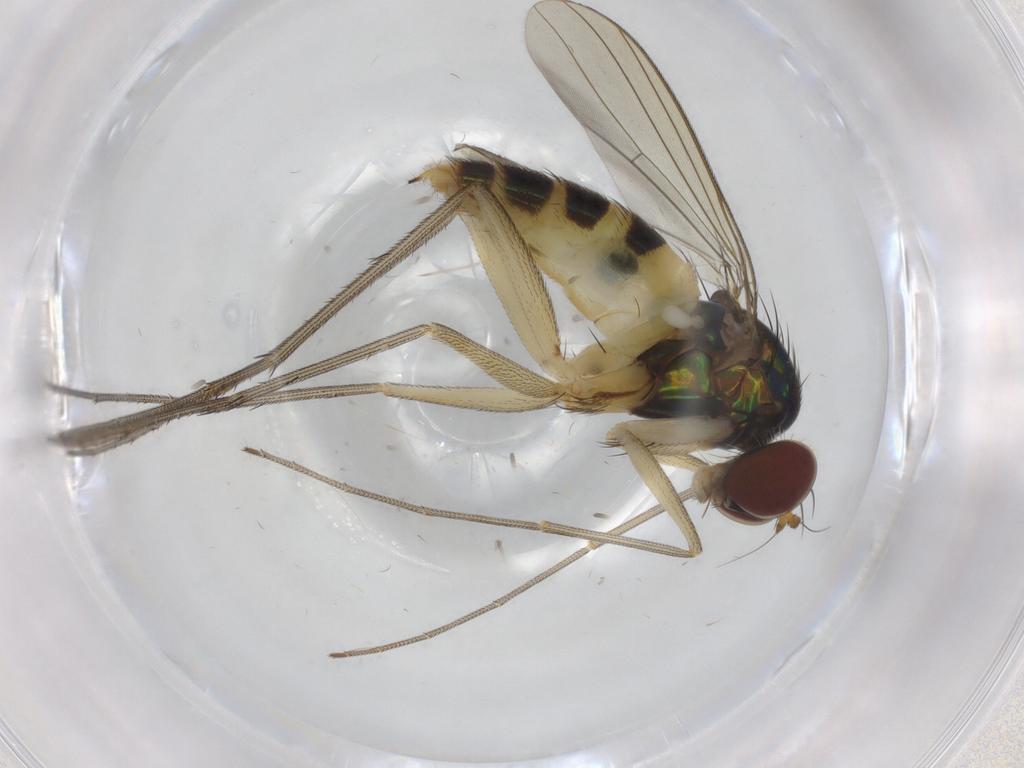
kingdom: Animalia
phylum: Arthropoda
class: Insecta
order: Diptera
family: Dolichopodidae
